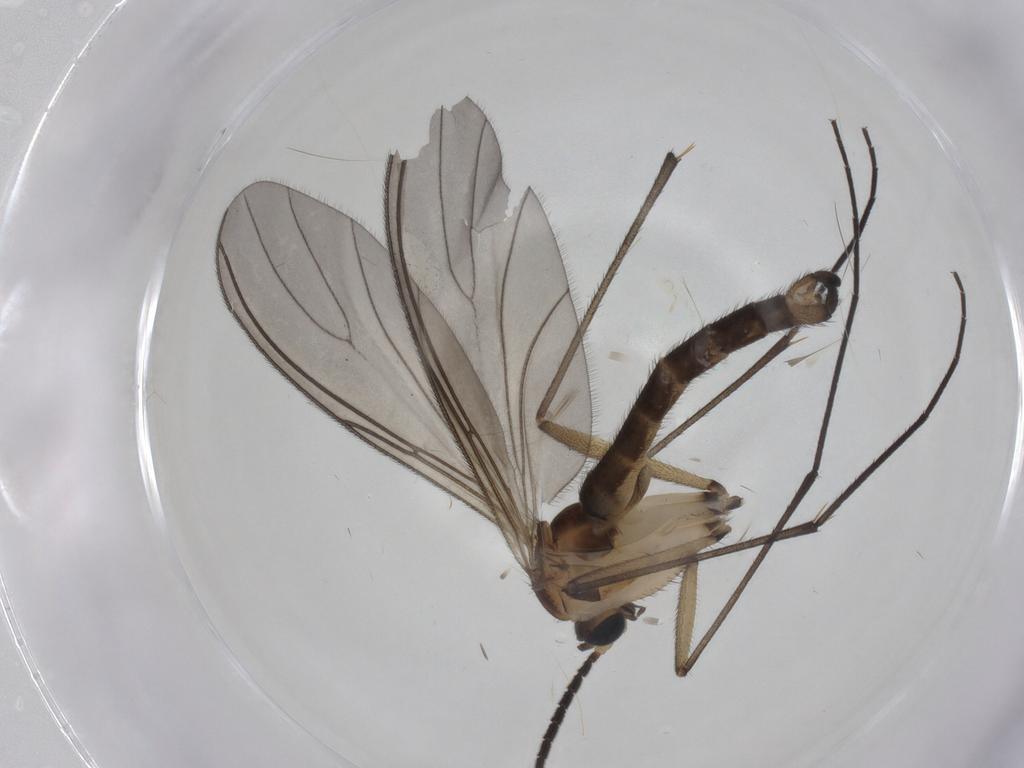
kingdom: Animalia
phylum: Arthropoda
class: Insecta
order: Diptera
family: Sciaridae
